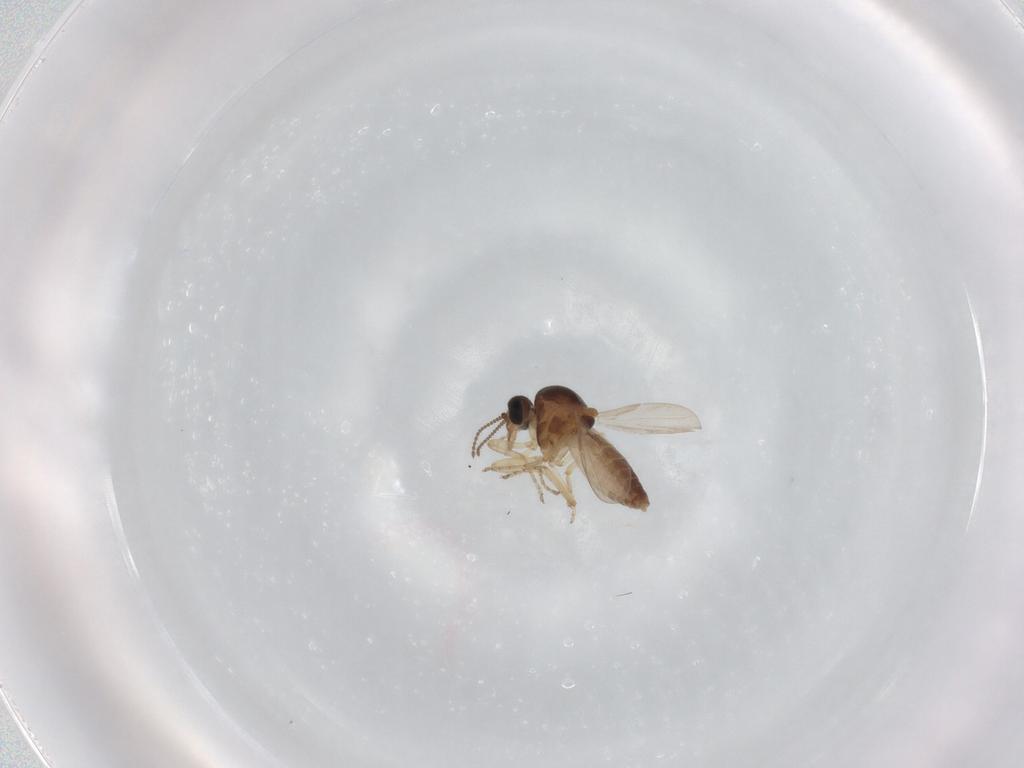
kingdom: Animalia
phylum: Arthropoda
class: Insecta
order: Diptera
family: Ceratopogonidae
